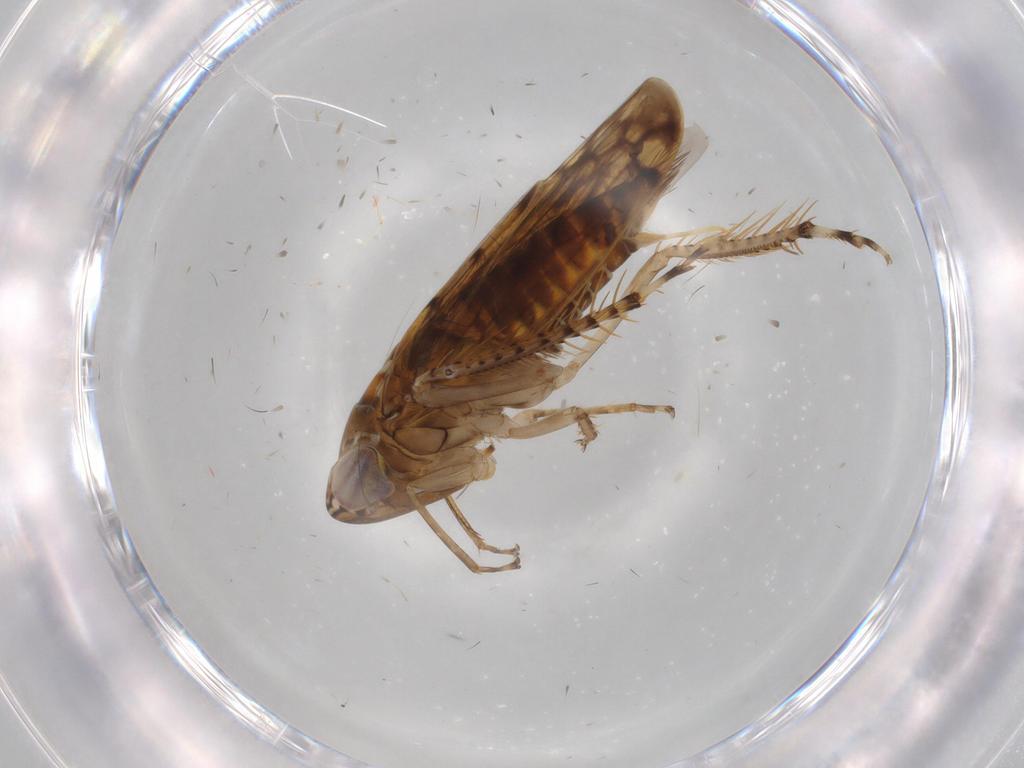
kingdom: Animalia
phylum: Arthropoda
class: Insecta
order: Hemiptera
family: Cicadellidae
